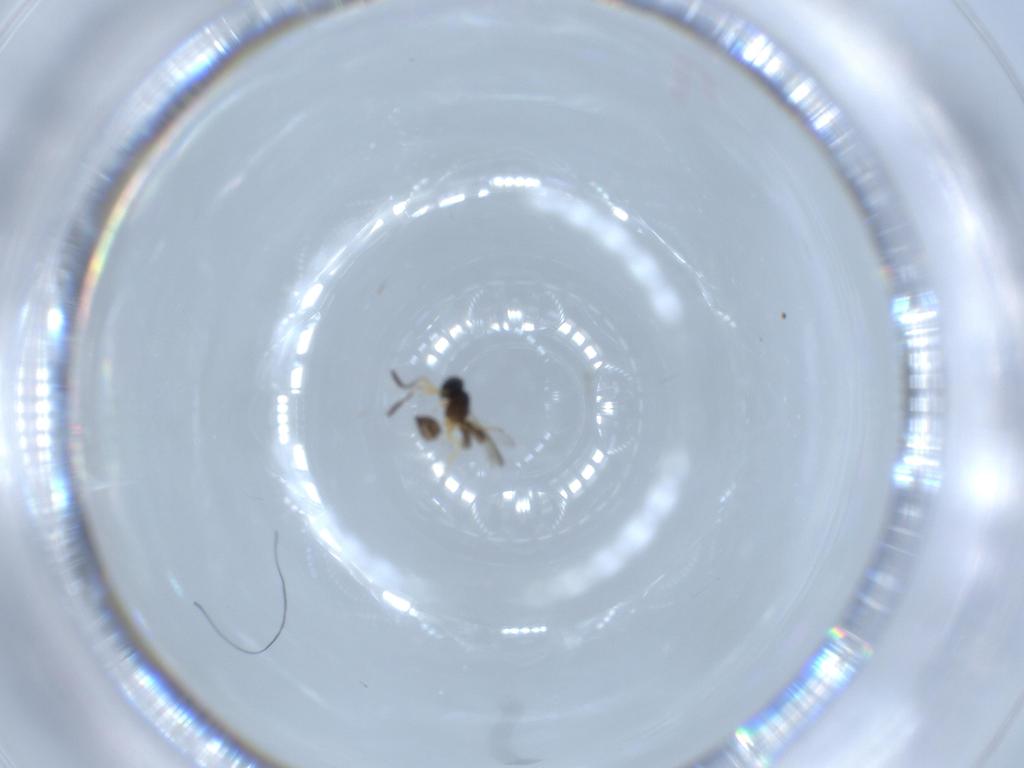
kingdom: Animalia
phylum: Arthropoda
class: Insecta
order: Hymenoptera
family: Scelionidae
